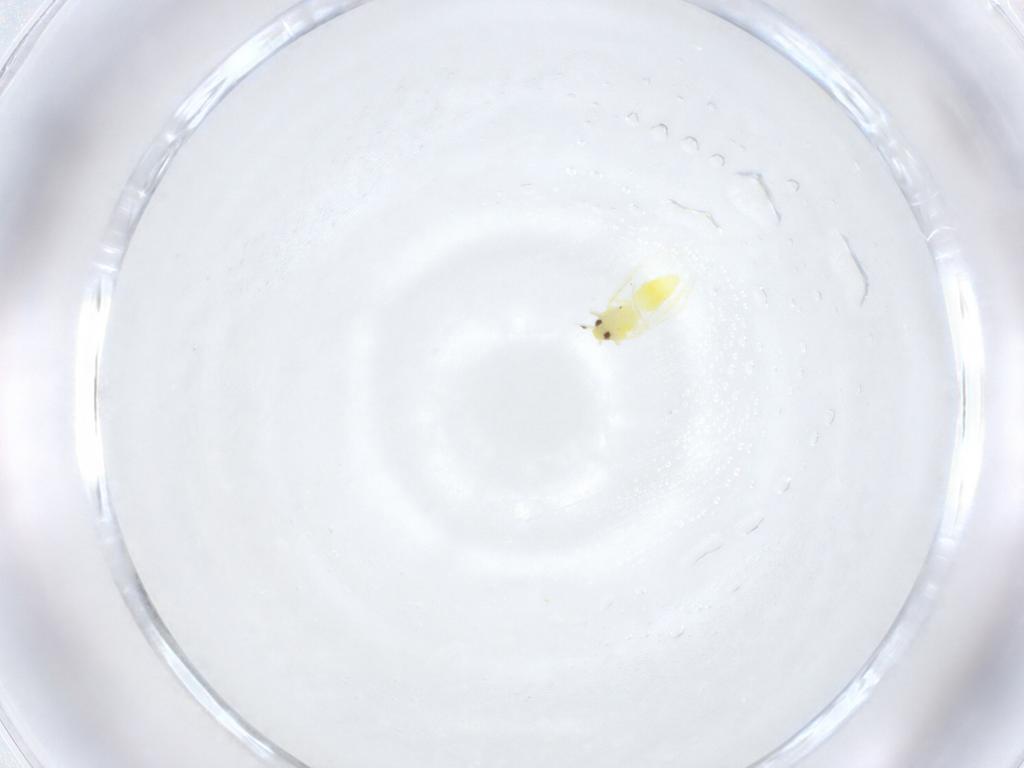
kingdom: Animalia
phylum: Arthropoda
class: Insecta
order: Hemiptera
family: Aleyrodidae
